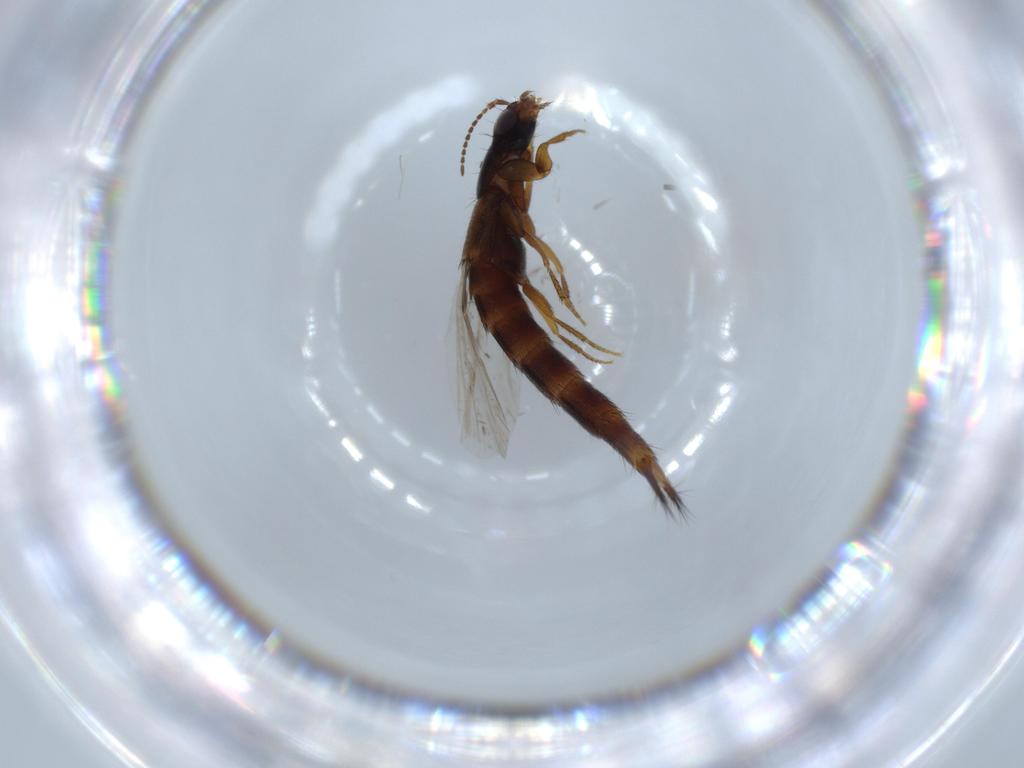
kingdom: Animalia
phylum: Arthropoda
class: Insecta
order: Coleoptera
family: Staphylinidae
